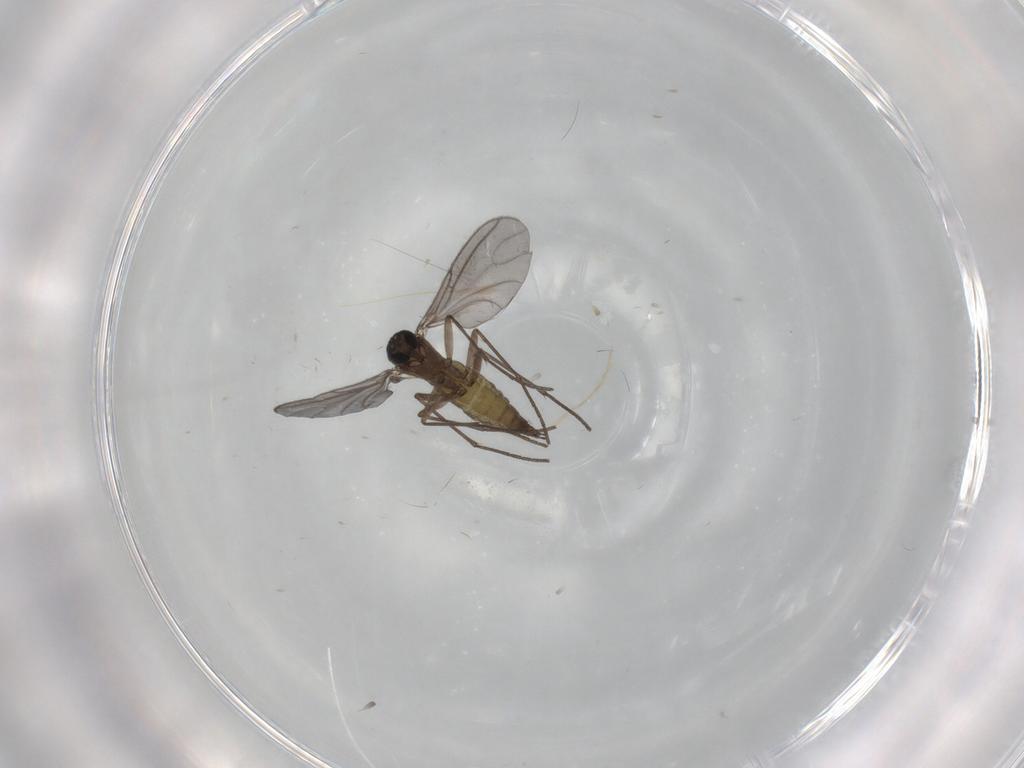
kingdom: Animalia
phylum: Arthropoda
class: Insecta
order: Diptera
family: Sciaridae
